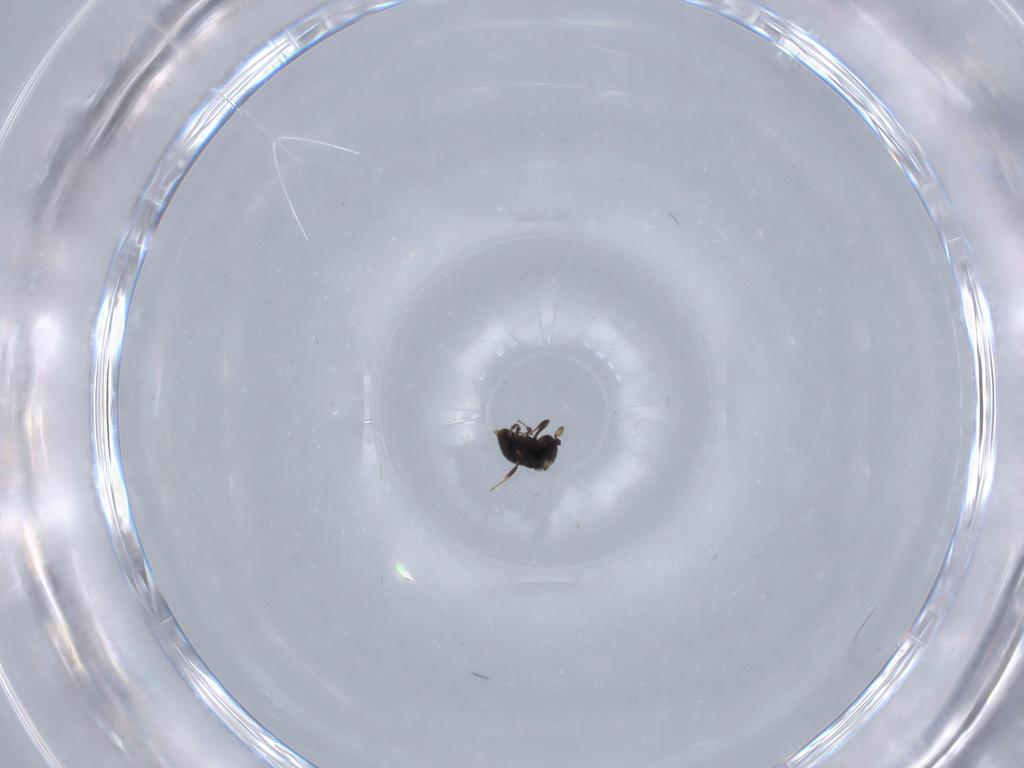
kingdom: Animalia
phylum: Arthropoda
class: Insecta
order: Hymenoptera
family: Scelionidae
